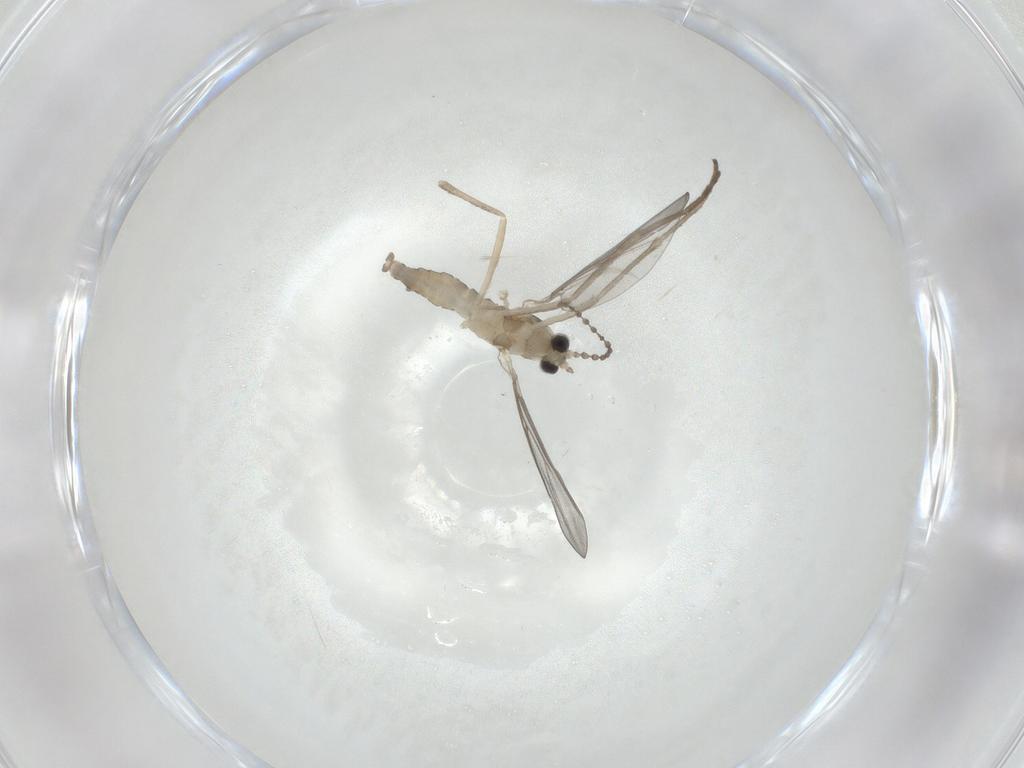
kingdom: Animalia
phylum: Arthropoda
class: Insecta
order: Diptera
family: Cecidomyiidae
